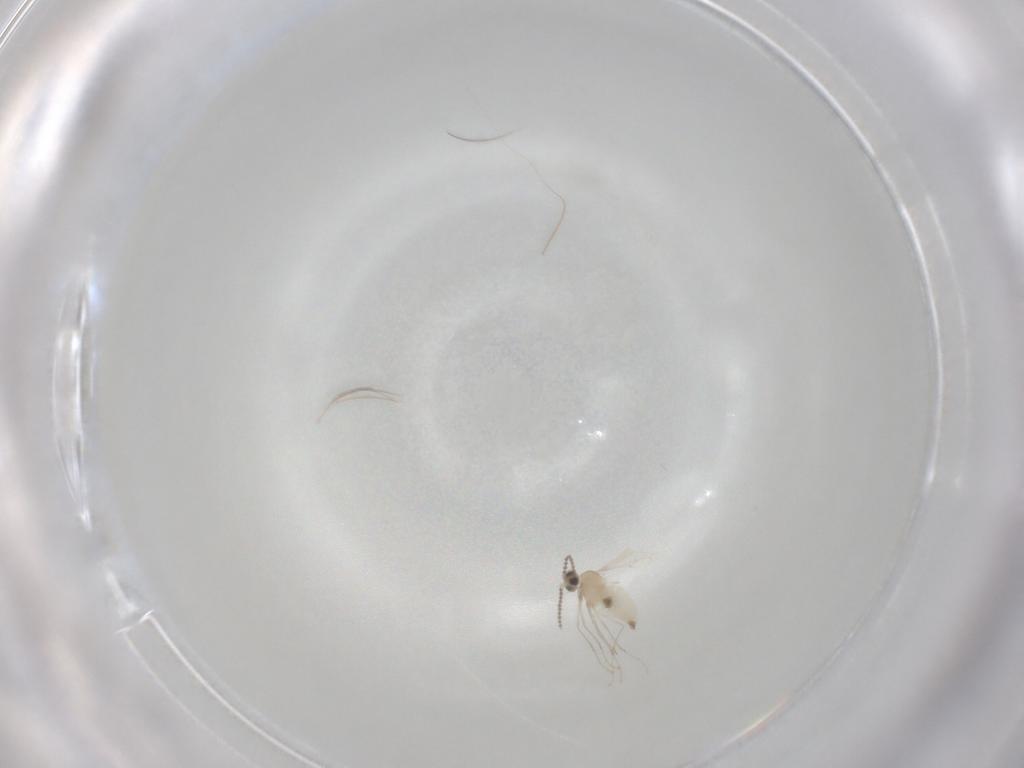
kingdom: Animalia
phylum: Arthropoda
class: Insecta
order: Diptera
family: Cecidomyiidae
